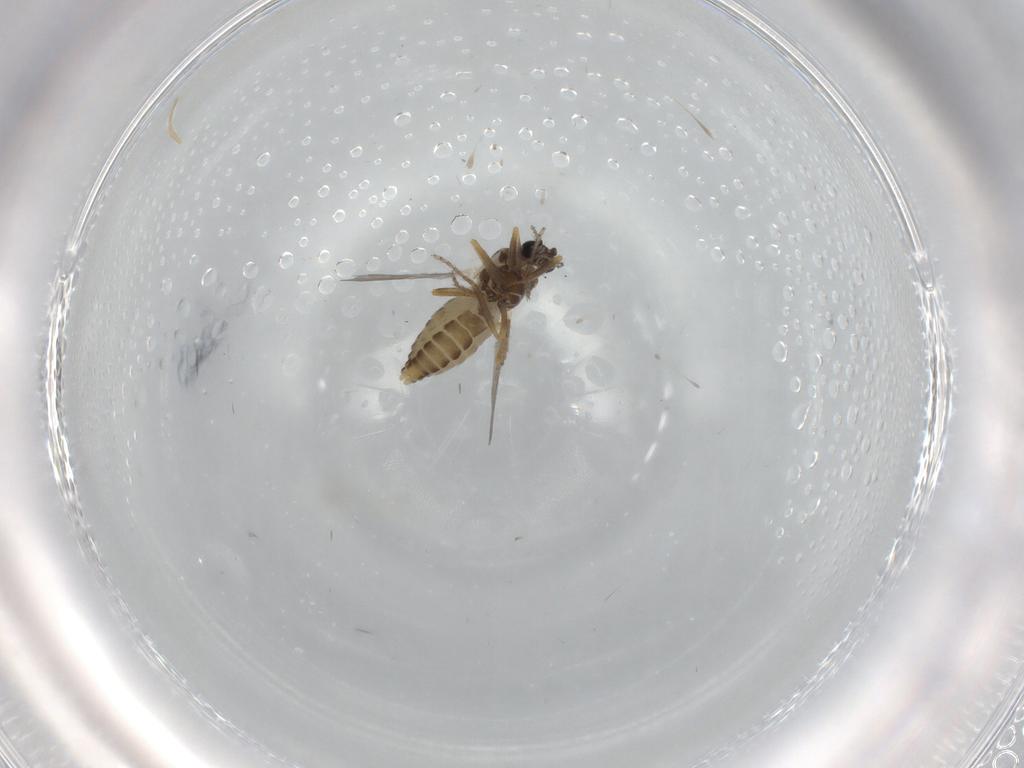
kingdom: Animalia
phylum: Arthropoda
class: Insecta
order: Diptera
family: Ceratopogonidae
